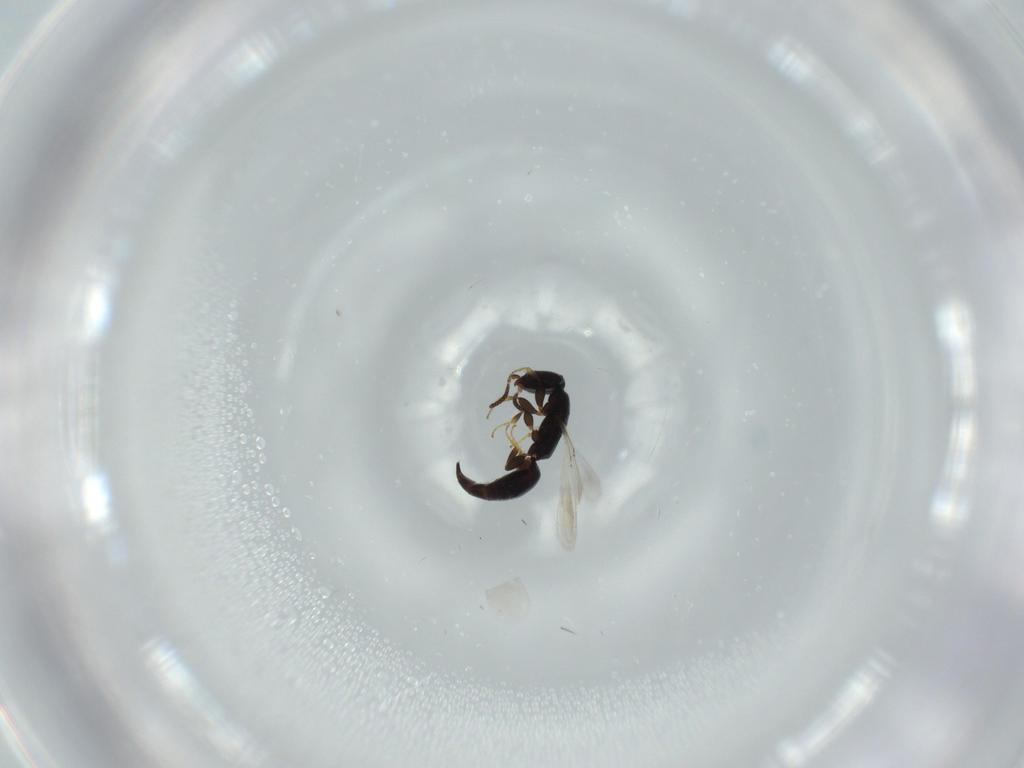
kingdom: Animalia
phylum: Arthropoda
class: Insecta
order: Hymenoptera
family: Bethylidae
